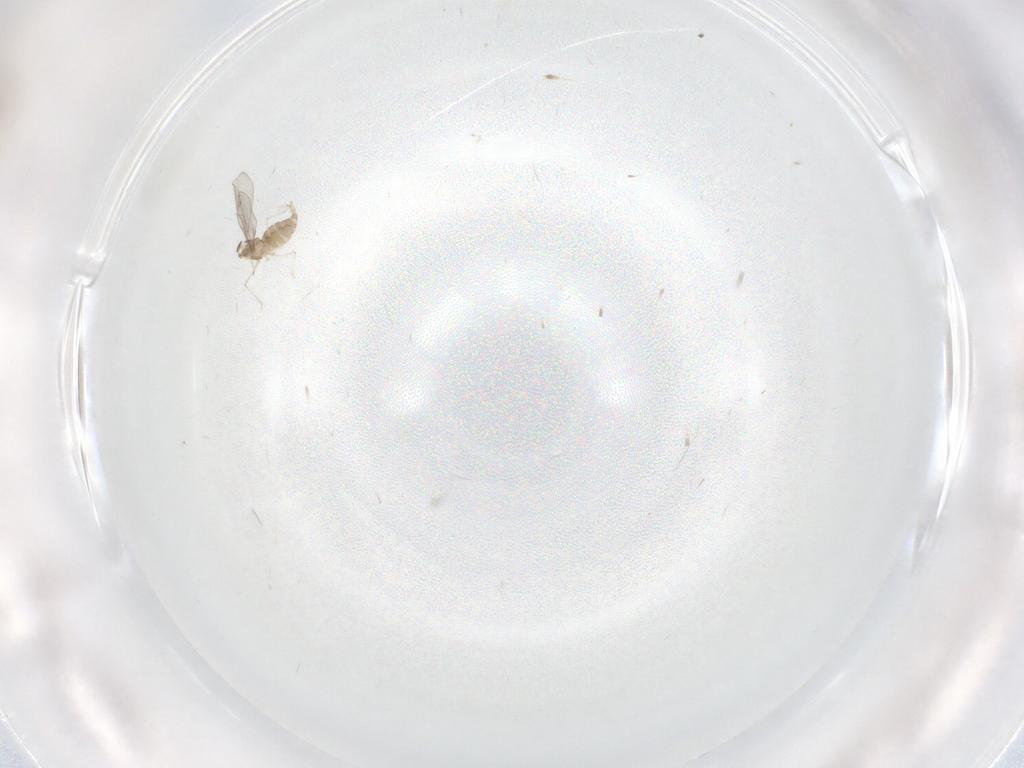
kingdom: Animalia
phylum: Arthropoda
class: Insecta
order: Diptera
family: Cecidomyiidae
